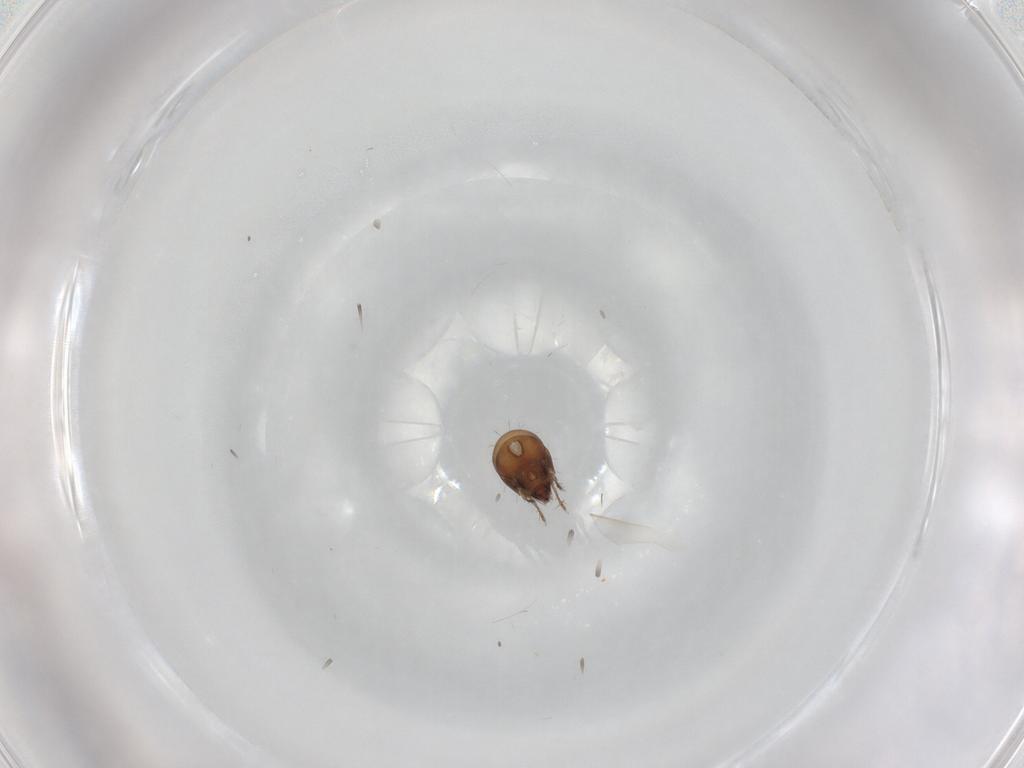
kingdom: Animalia
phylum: Arthropoda
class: Arachnida
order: Sarcoptiformes
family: Humerobatidae
